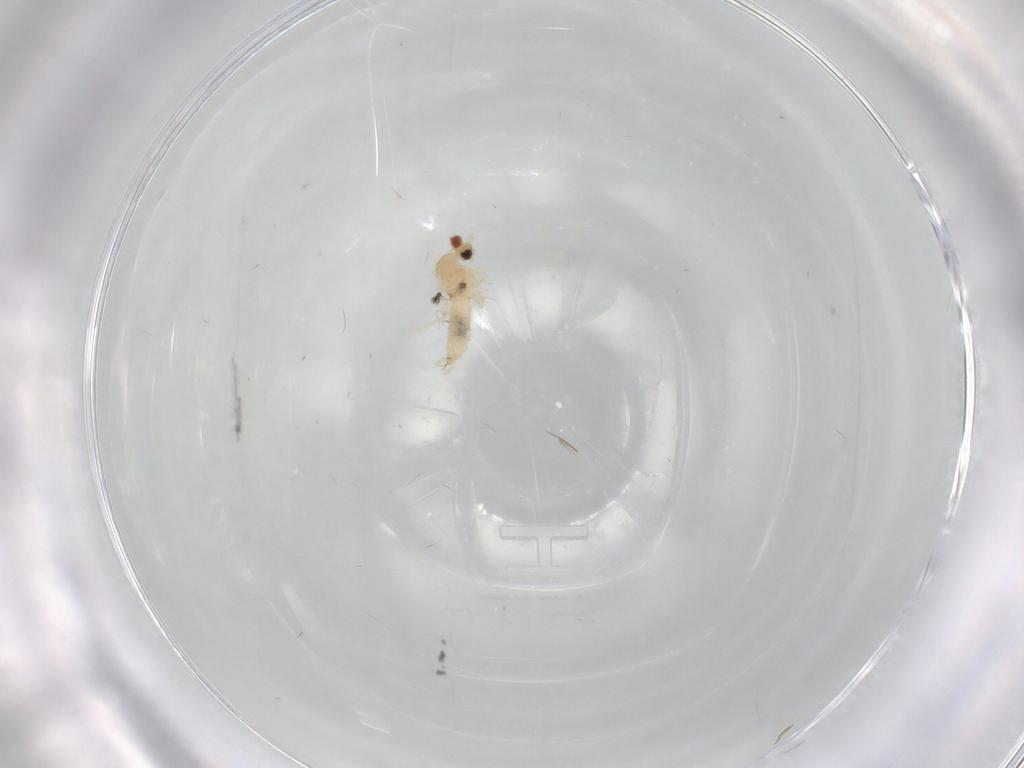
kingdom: Animalia
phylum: Arthropoda
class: Insecta
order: Diptera
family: Cecidomyiidae
